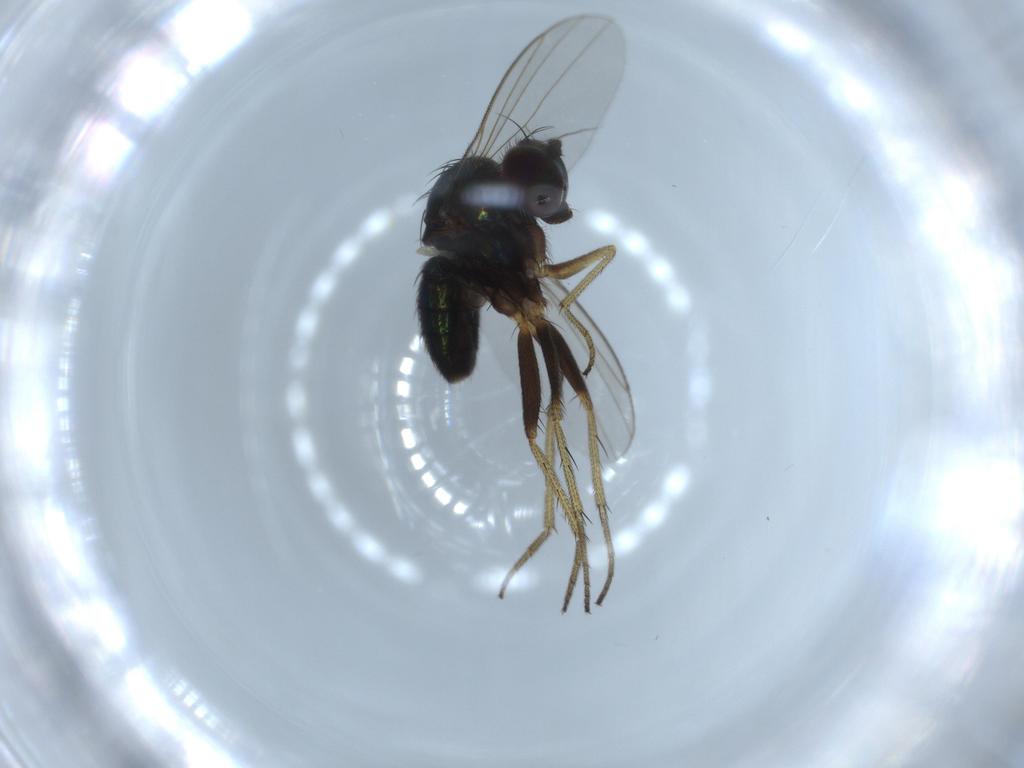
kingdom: Animalia
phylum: Arthropoda
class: Insecta
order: Diptera
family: Dolichopodidae
